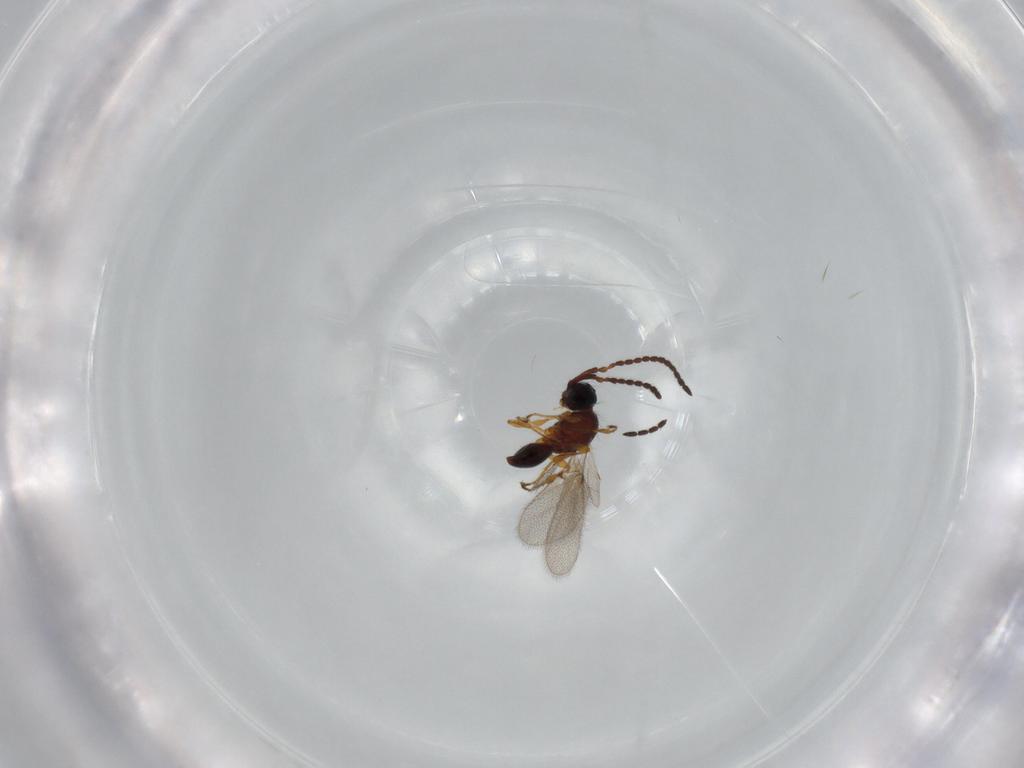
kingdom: Animalia
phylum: Arthropoda
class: Insecta
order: Hymenoptera
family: Diapriidae
